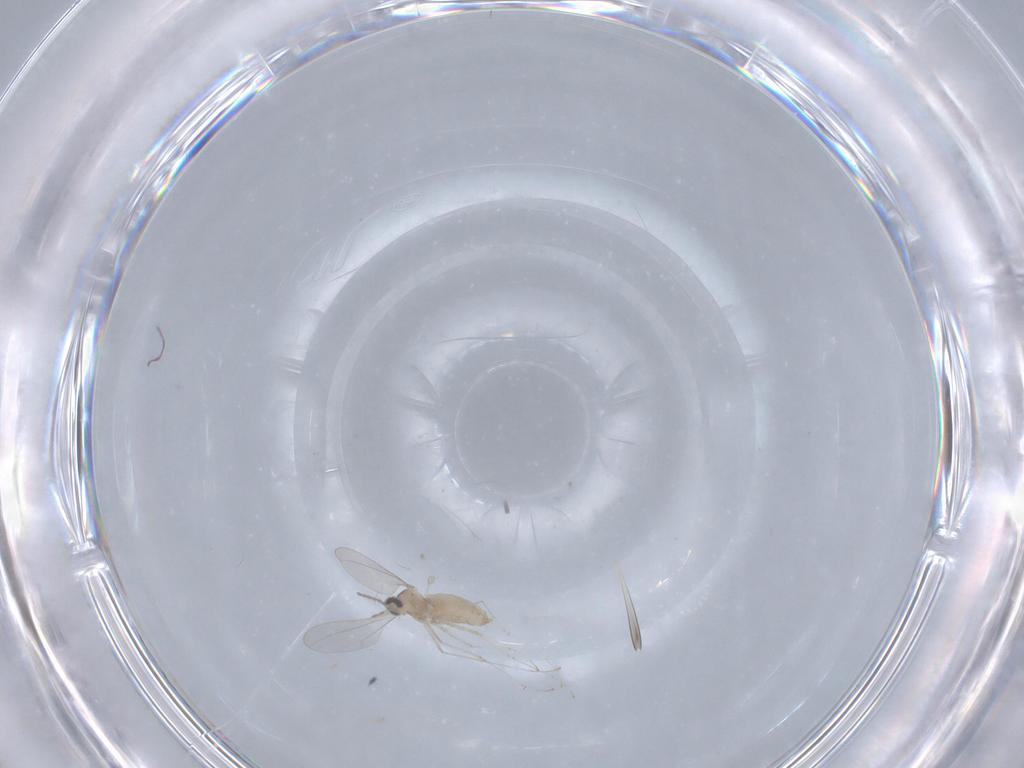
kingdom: Animalia
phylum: Arthropoda
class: Insecta
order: Diptera
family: Cecidomyiidae
